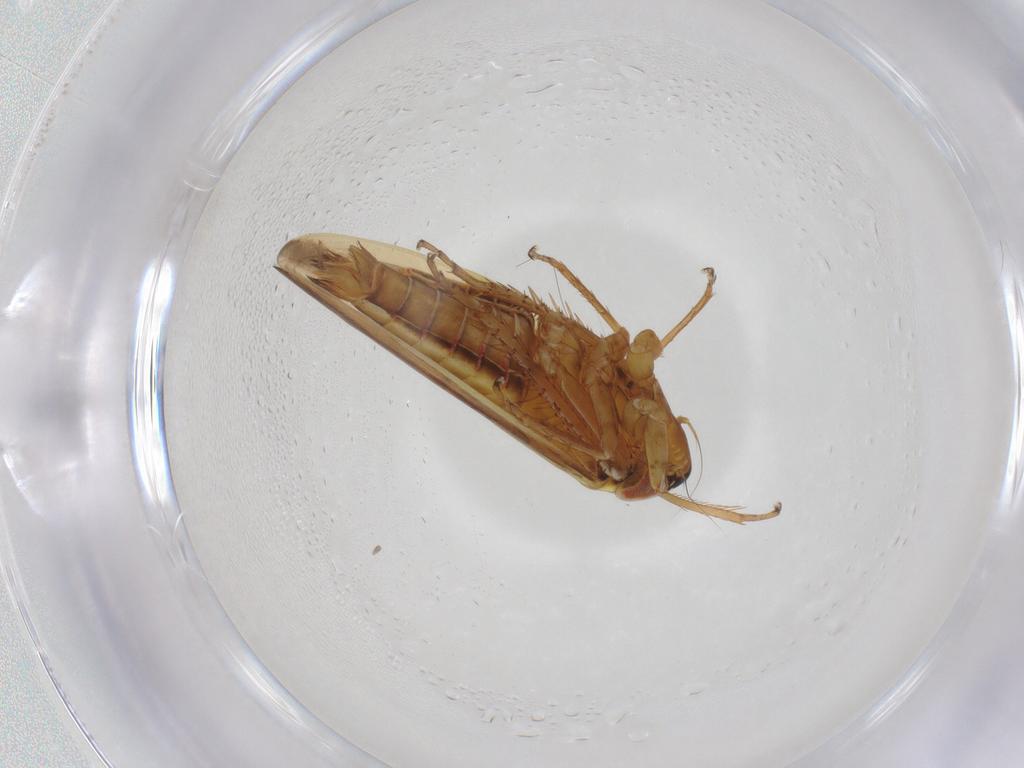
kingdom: Animalia
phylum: Arthropoda
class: Insecta
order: Hemiptera
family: Cicadellidae
